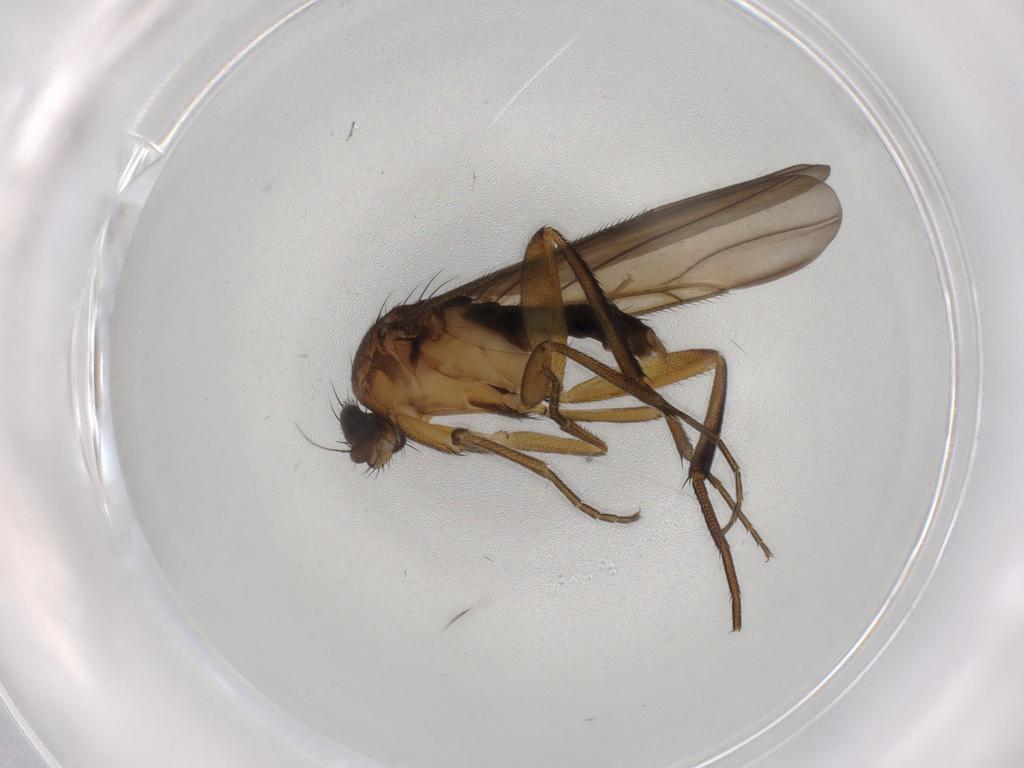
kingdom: Animalia
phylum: Arthropoda
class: Insecta
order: Diptera
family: Phoridae
